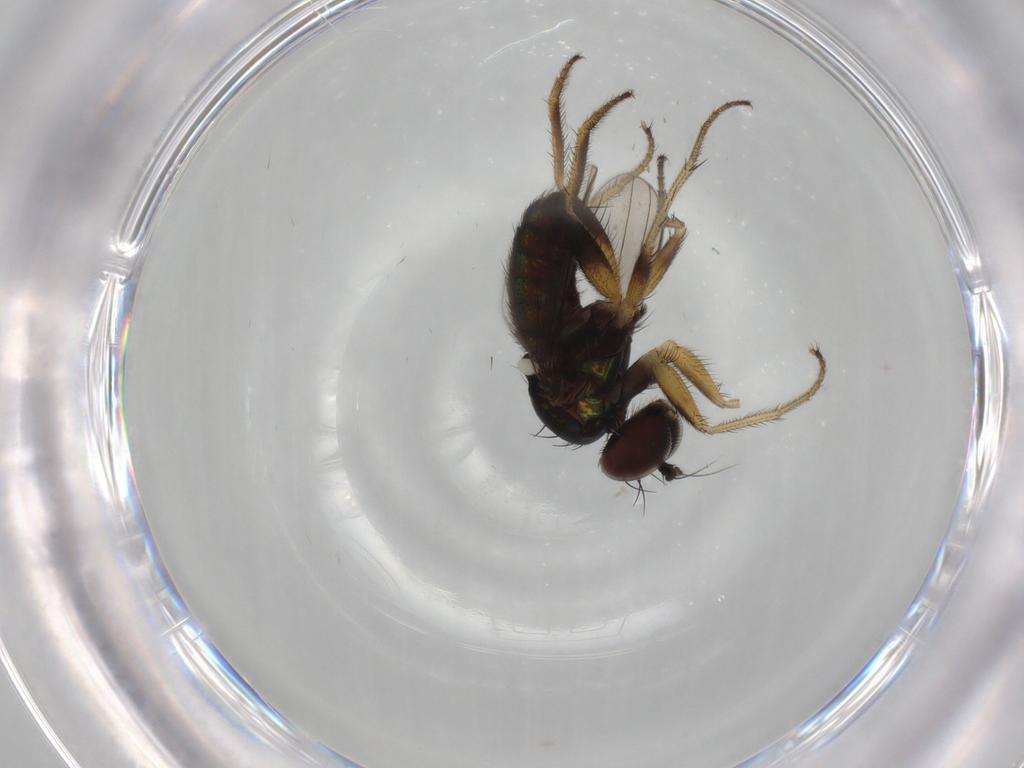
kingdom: Animalia
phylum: Arthropoda
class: Insecta
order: Diptera
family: Dolichopodidae
